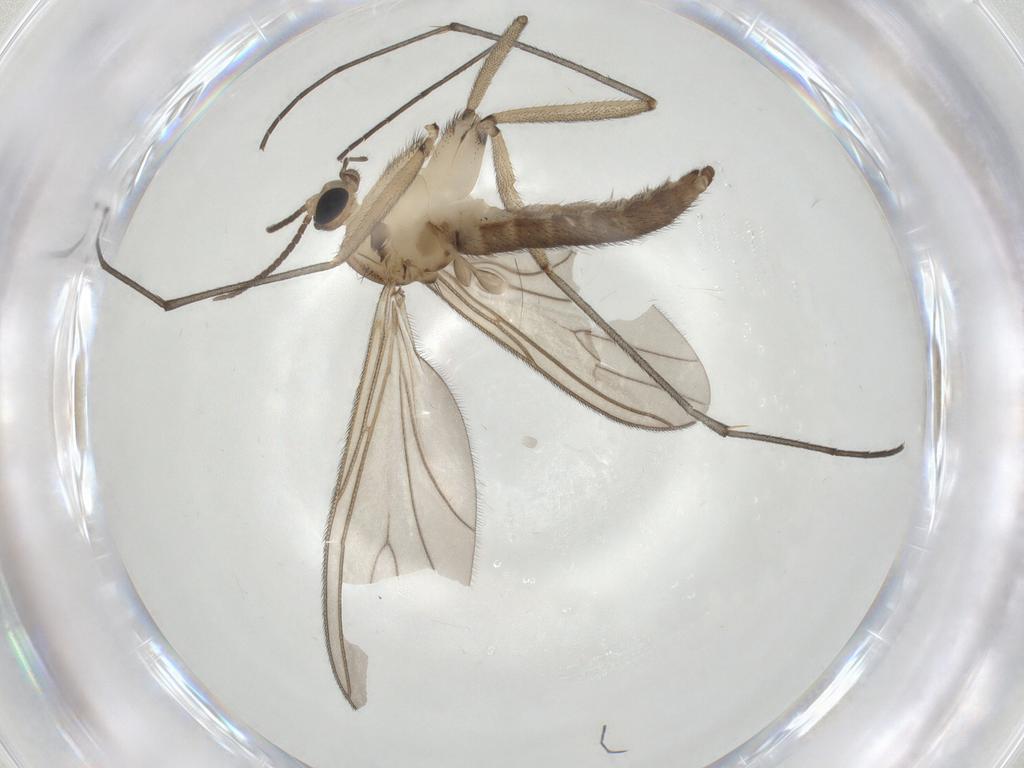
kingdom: Animalia
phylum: Arthropoda
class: Insecta
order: Diptera
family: Sciaridae
